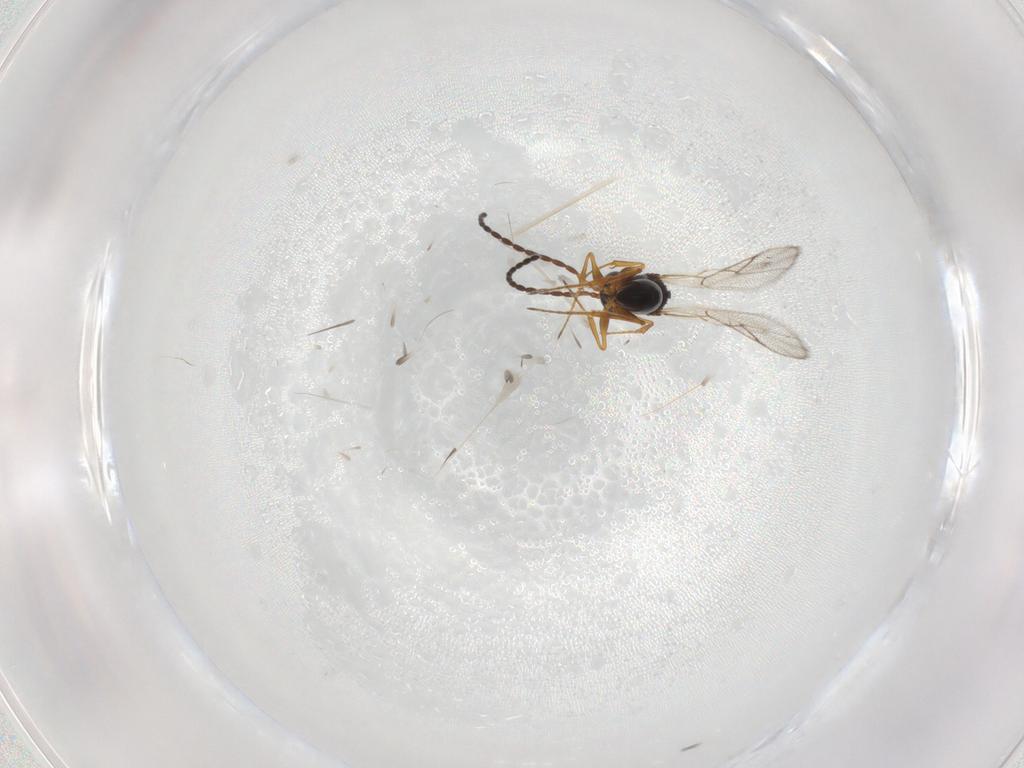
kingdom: Animalia
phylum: Arthropoda
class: Insecta
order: Hymenoptera
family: Figitidae
